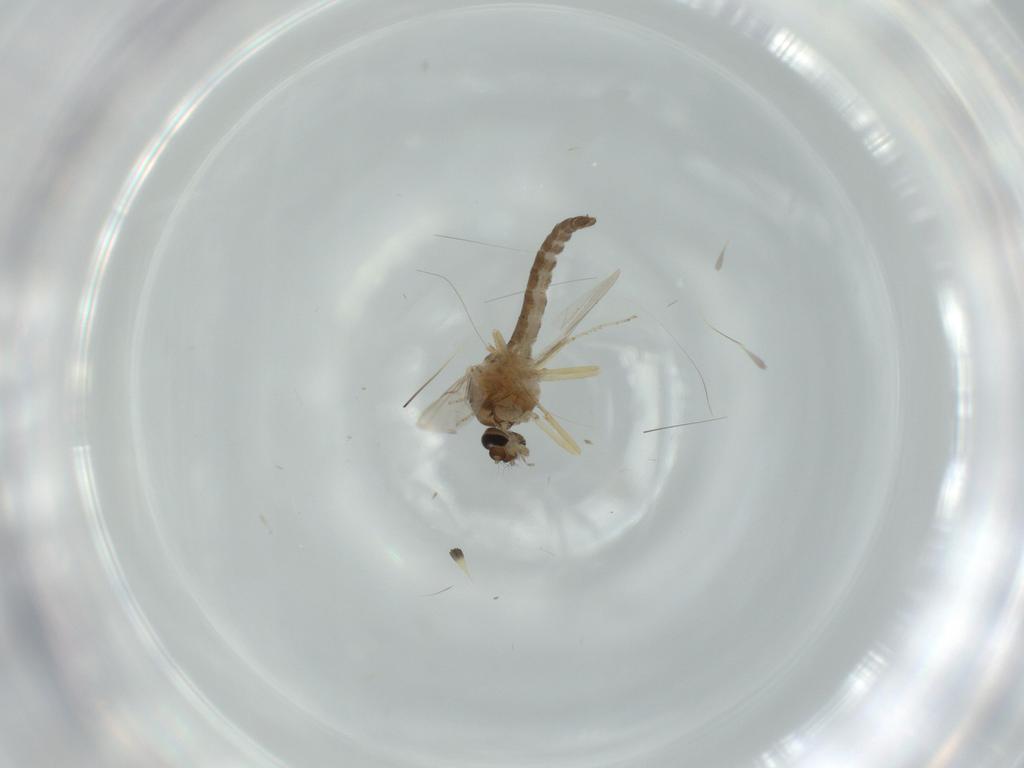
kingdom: Animalia
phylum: Arthropoda
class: Insecta
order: Diptera
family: Ceratopogonidae
